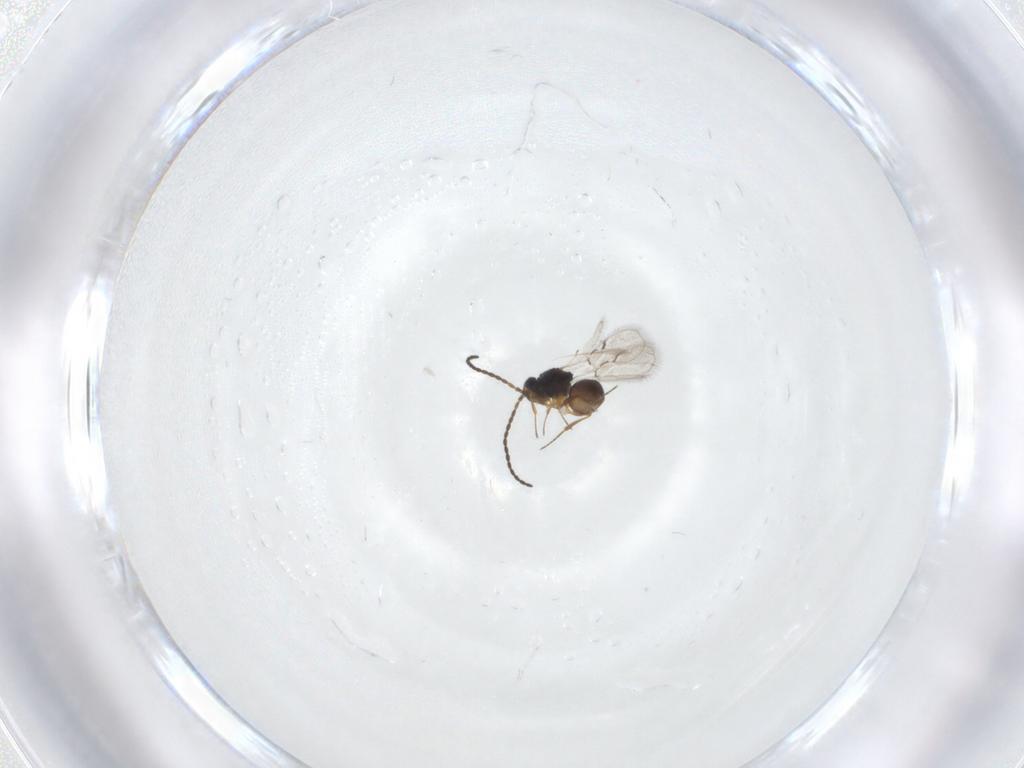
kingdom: Animalia
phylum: Arthropoda
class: Insecta
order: Hymenoptera
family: Figitidae
